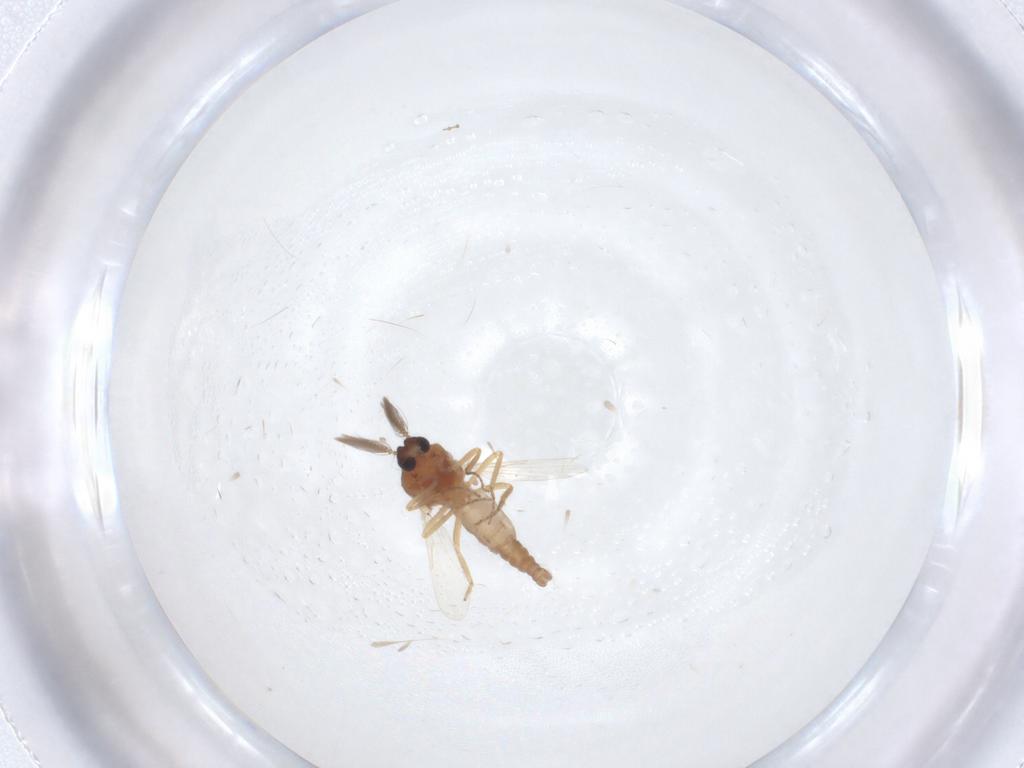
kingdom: Animalia
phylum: Arthropoda
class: Insecta
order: Diptera
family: Ceratopogonidae
